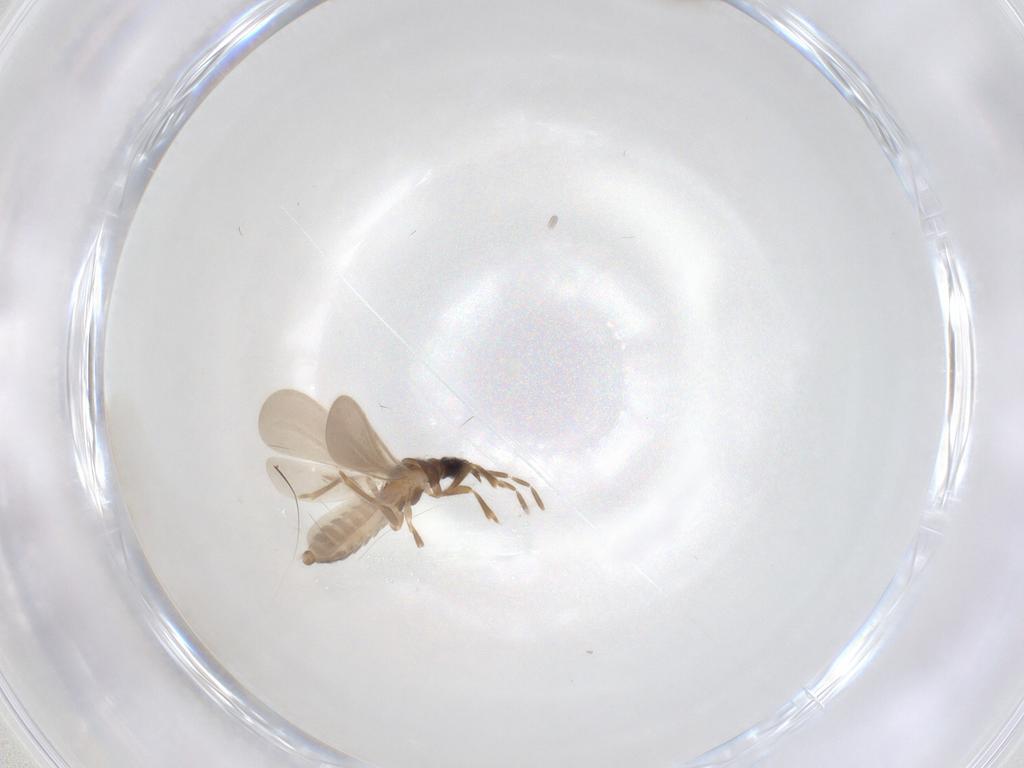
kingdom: Animalia
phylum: Arthropoda
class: Insecta
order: Hemiptera
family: Enicocephalidae
